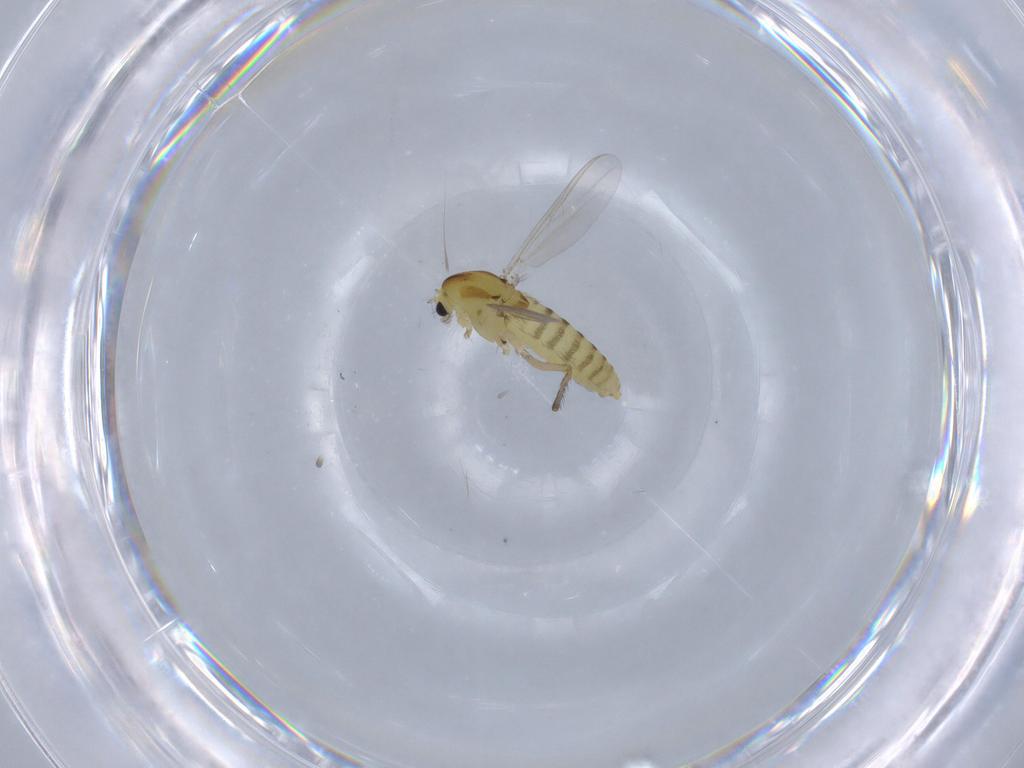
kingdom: Animalia
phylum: Arthropoda
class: Insecta
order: Diptera
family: Chironomidae
